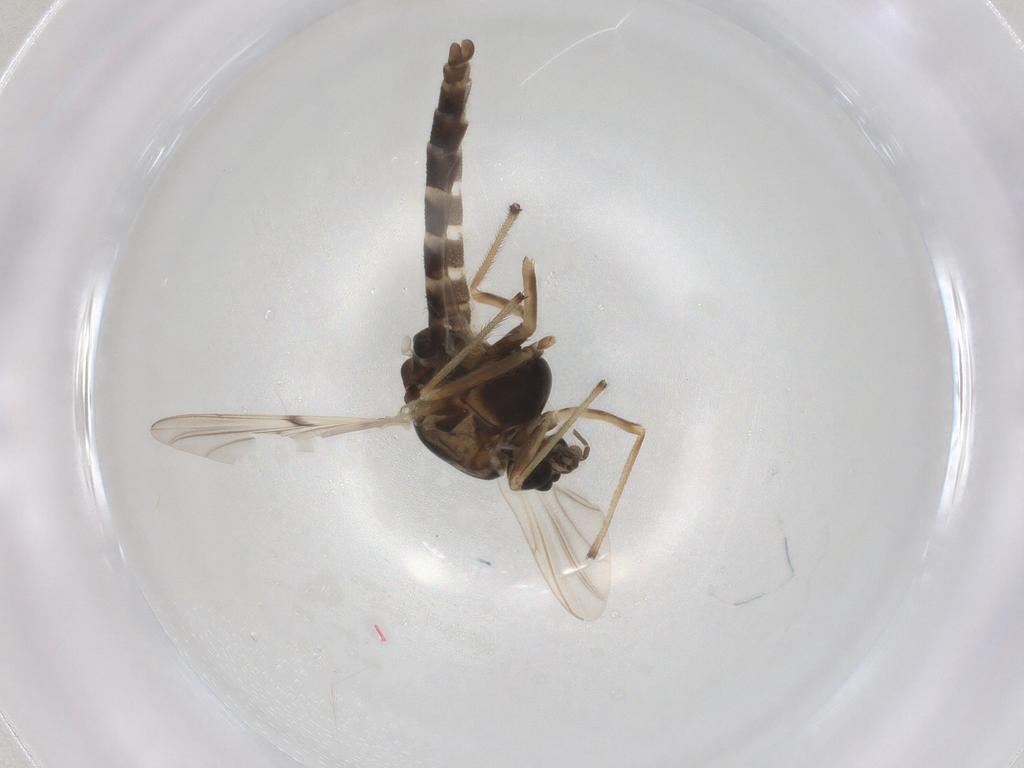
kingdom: Animalia
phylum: Arthropoda
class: Insecta
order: Diptera
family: Chironomidae
